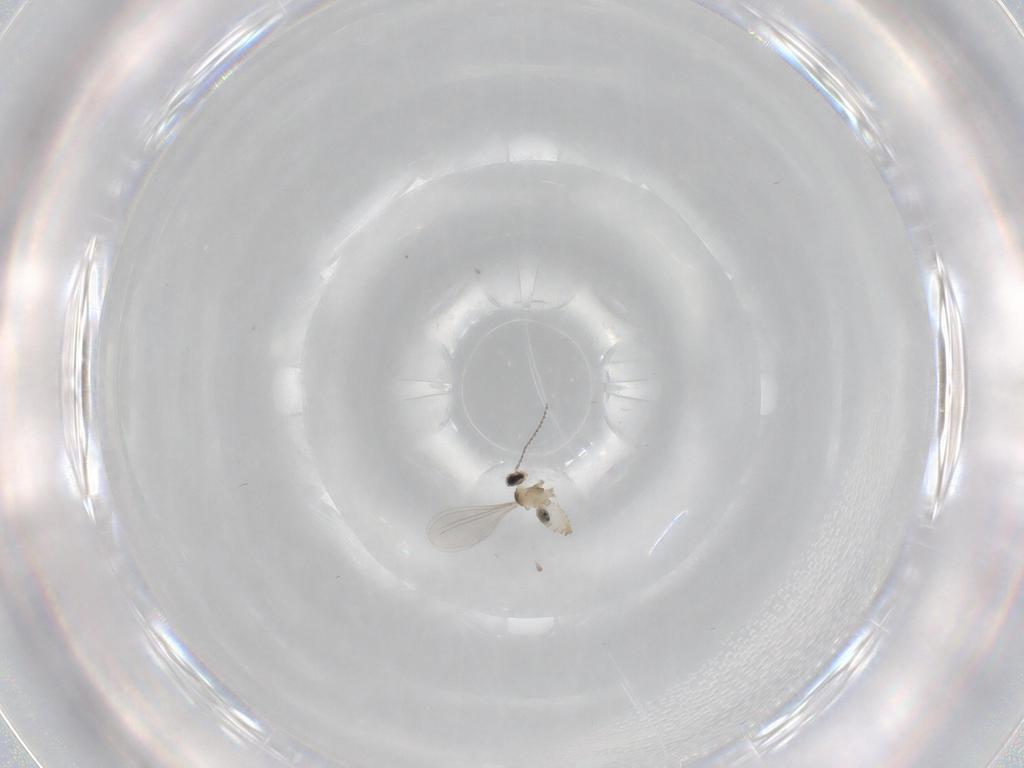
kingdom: Animalia
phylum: Arthropoda
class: Insecta
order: Diptera
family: Cecidomyiidae
